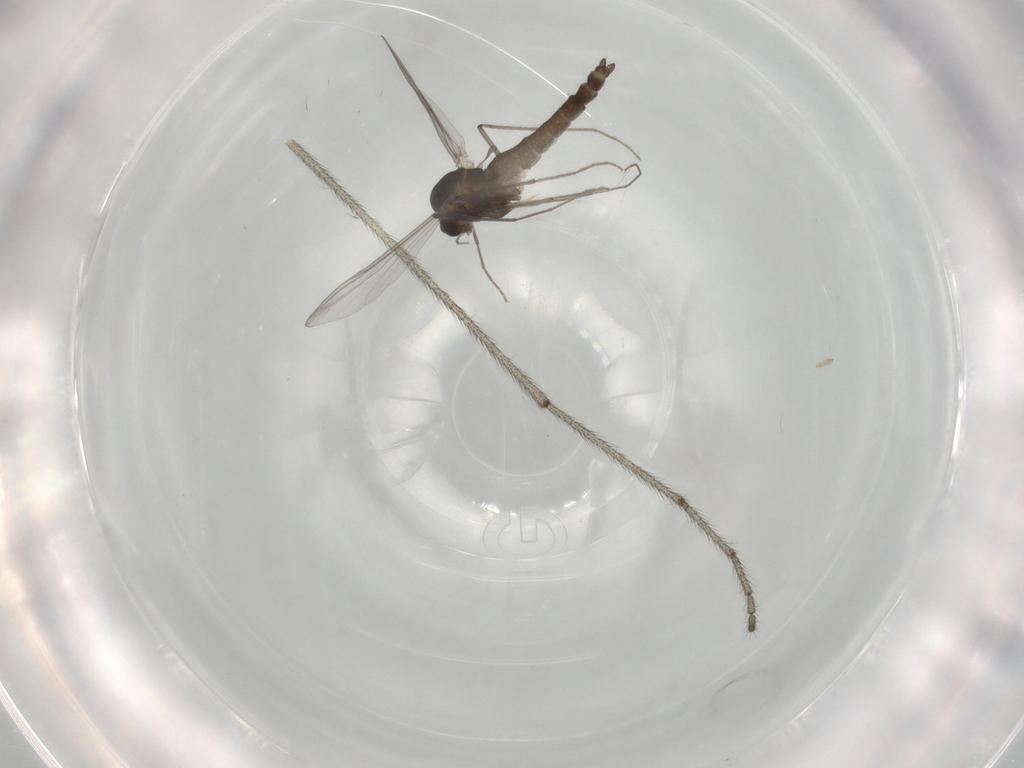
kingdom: Animalia
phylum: Arthropoda
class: Insecta
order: Diptera
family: Chironomidae
